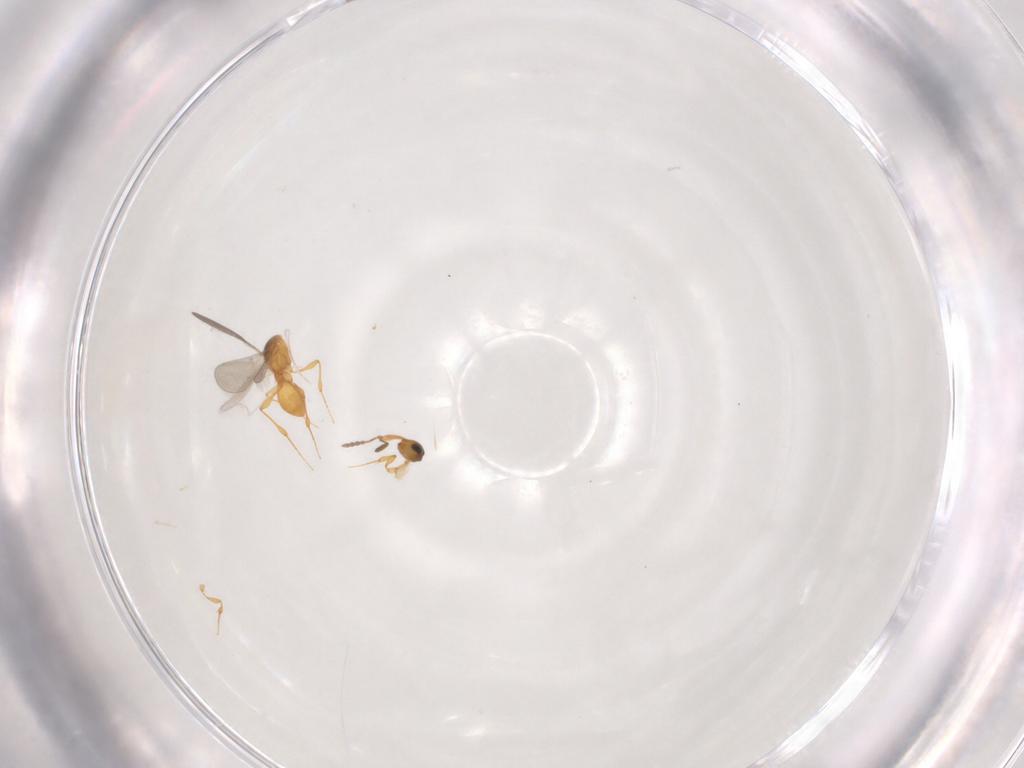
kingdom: Animalia
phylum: Arthropoda
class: Insecta
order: Hymenoptera
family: Platygastridae
